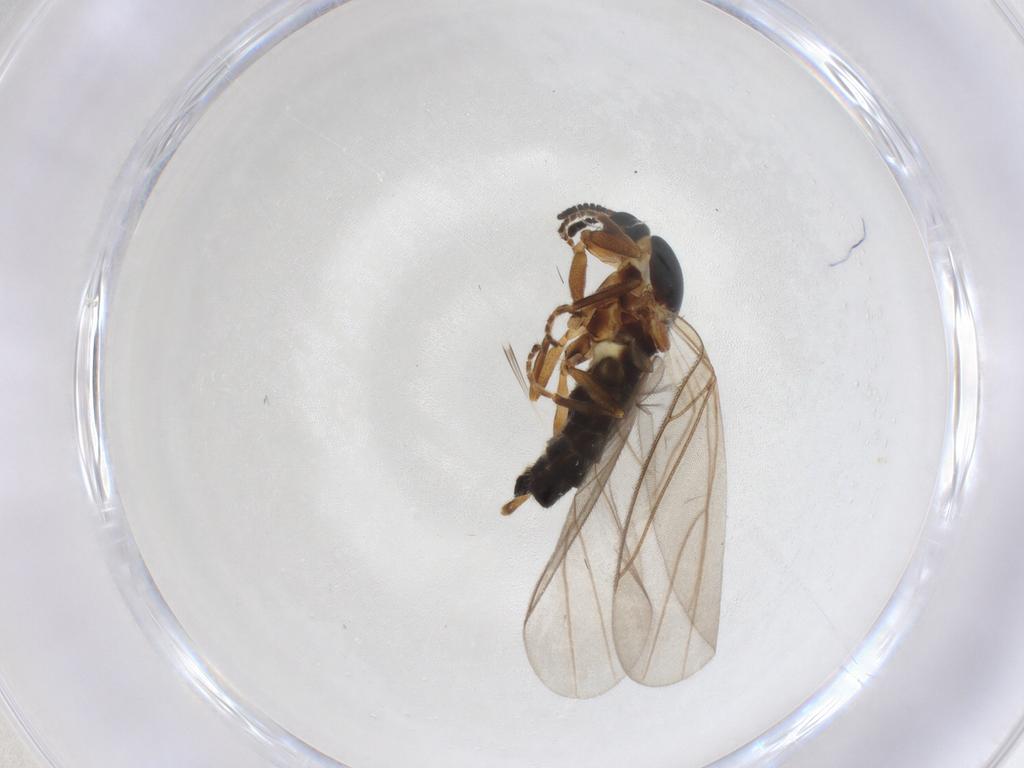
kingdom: Animalia
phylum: Arthropoda
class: Insecta
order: Diptera
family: Scatopsidae
